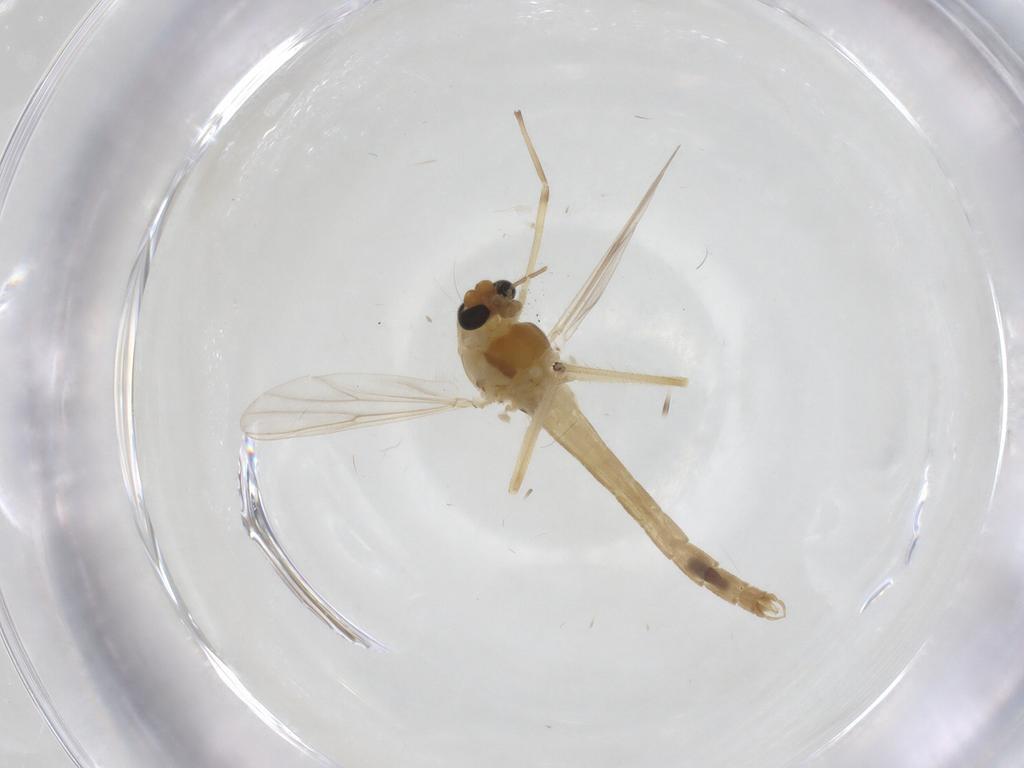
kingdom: Animalia
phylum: Arthropoda
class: Insecta
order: Diptera
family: Chironomidae
